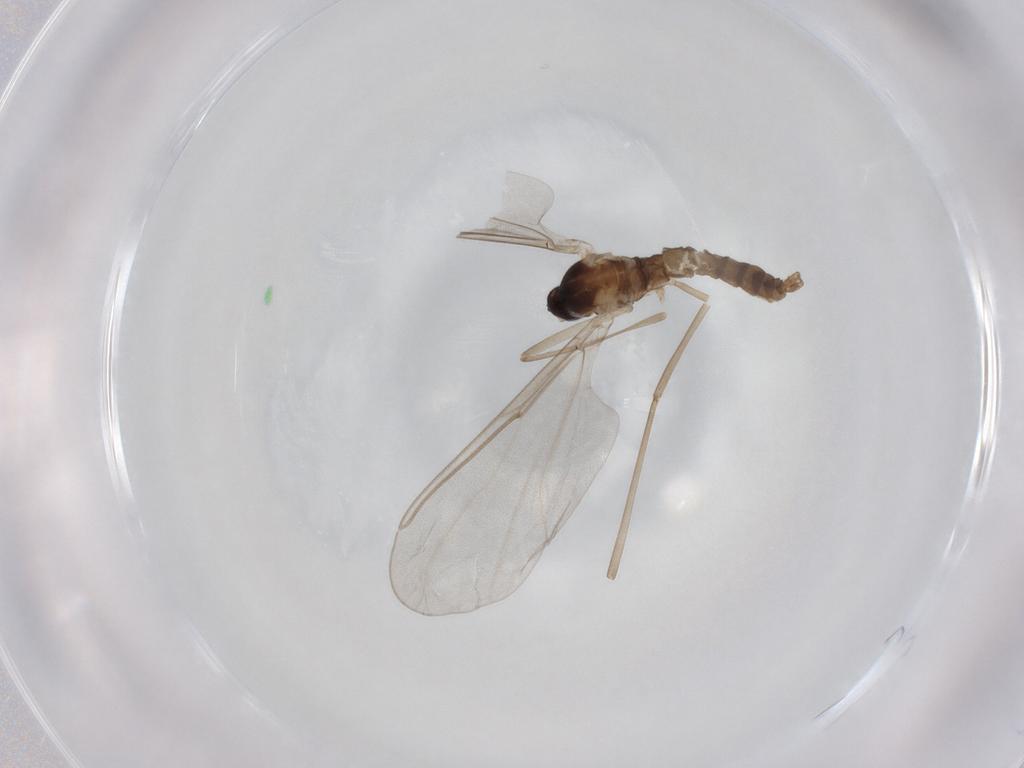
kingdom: Animalia
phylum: Arthropoda
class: Insecta
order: Diptera
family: Cecidomyiidae
